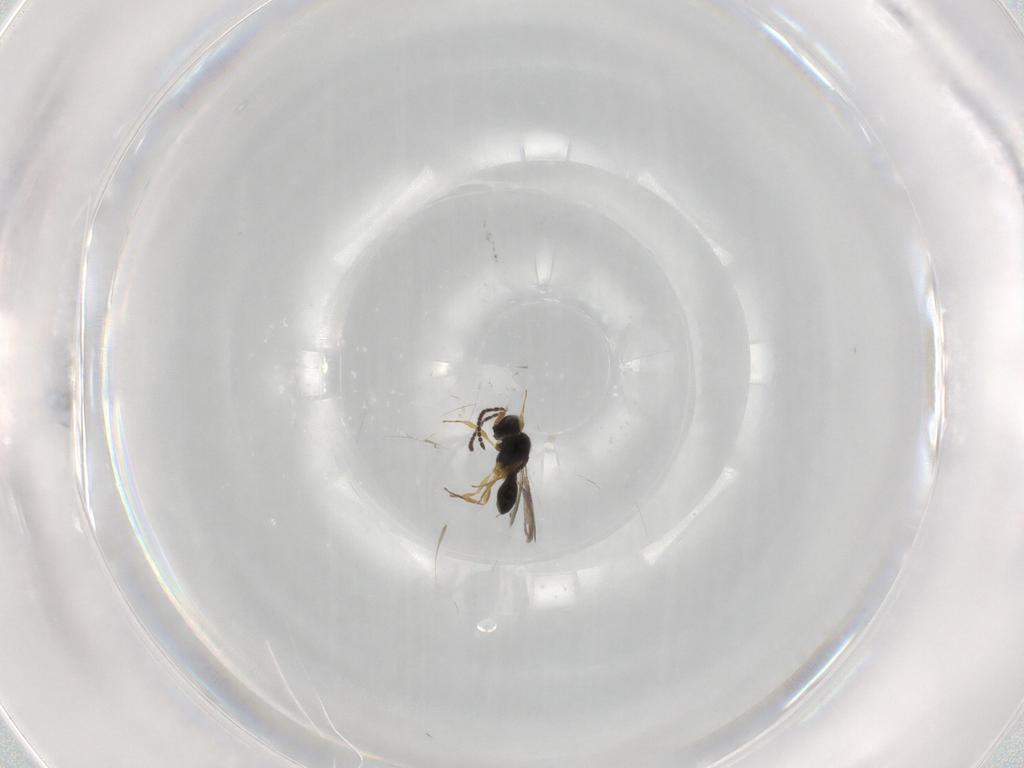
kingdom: Animalia
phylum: Arthropoda
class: Insecta
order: Hymenoptera
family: Scelionidae
